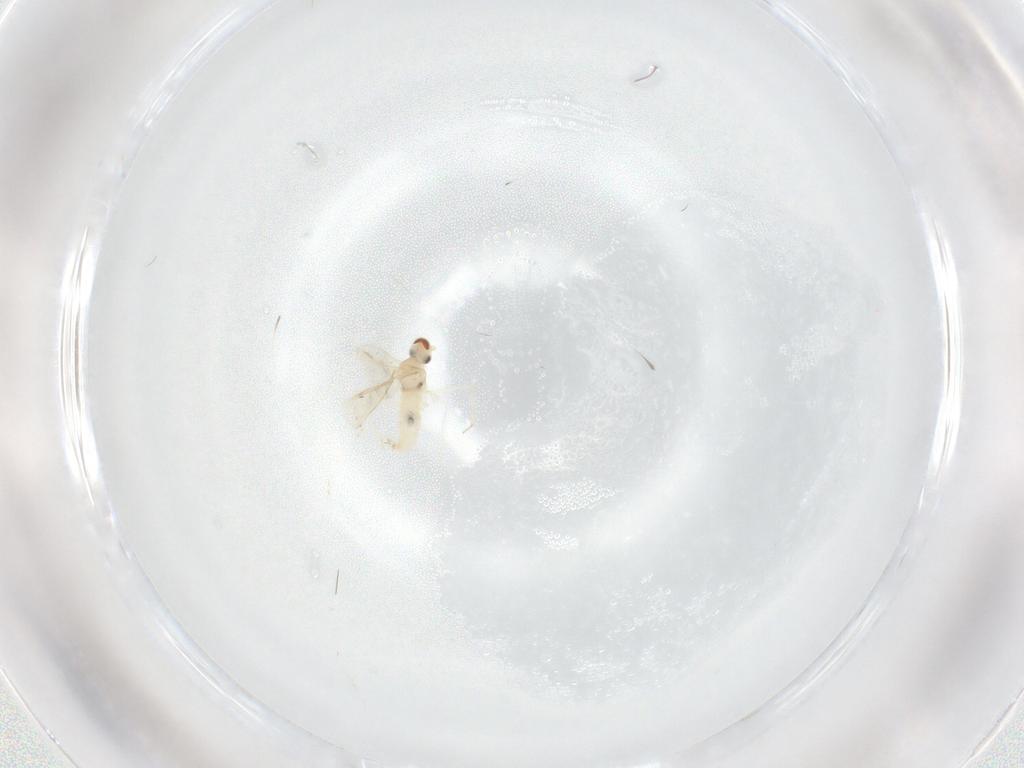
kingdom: Animalia
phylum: Arthropoda
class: Insecta
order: Diptera
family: Cecidomyiidae
